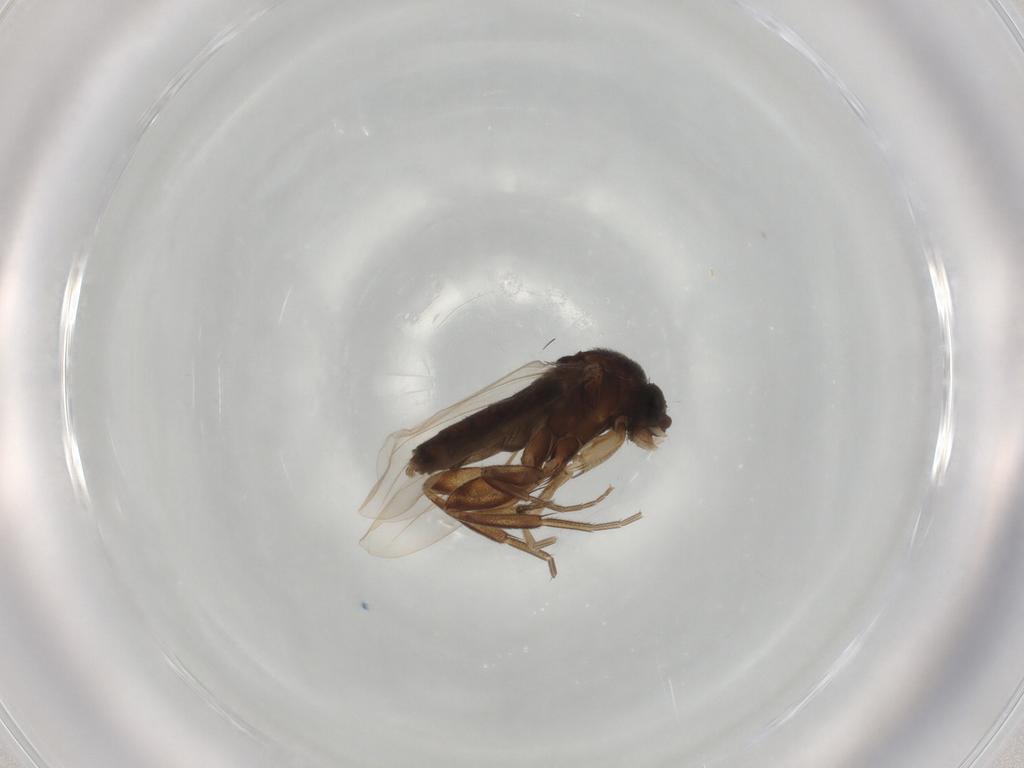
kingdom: Animalia
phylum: Arthropoda
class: Insecta
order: Diptera
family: Phoridae
